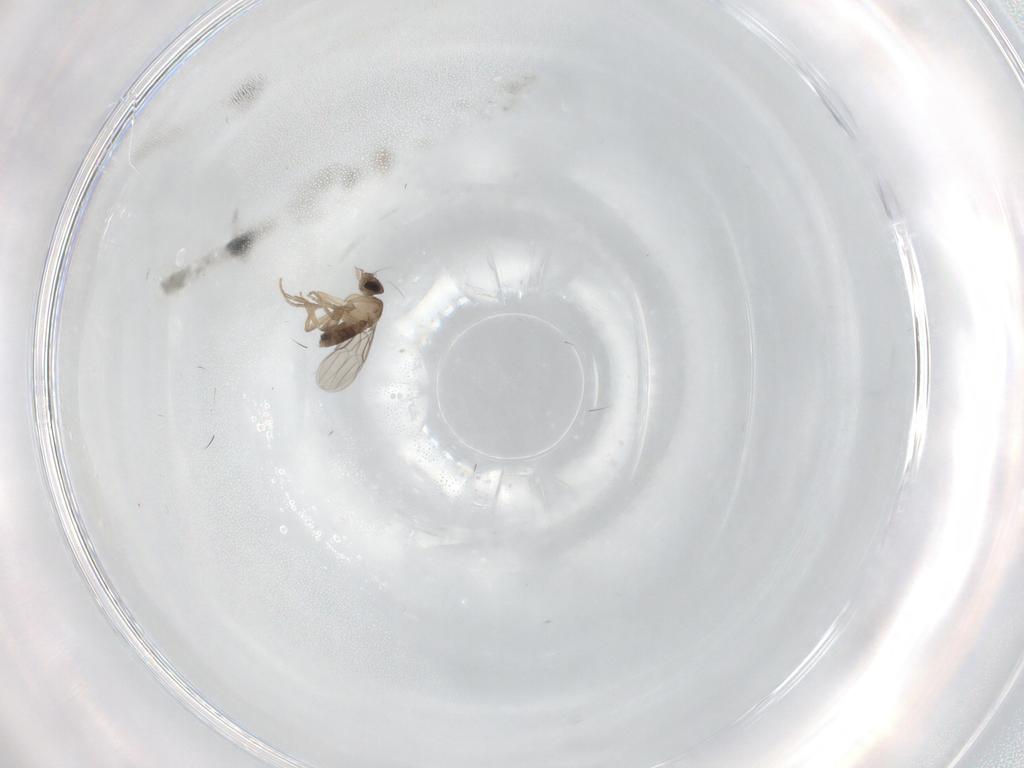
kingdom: Animalia
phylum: Arthropoda
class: Insecta
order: Diptera
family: Phoridae
